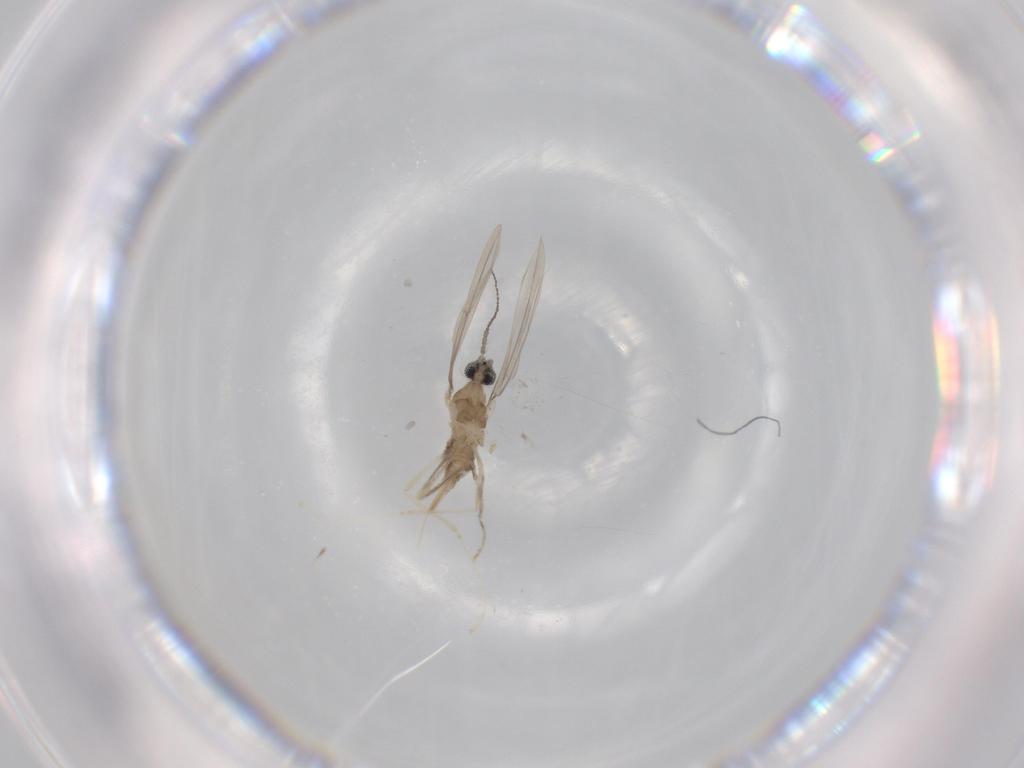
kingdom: Animalia
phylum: Arthropoda
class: Insecta
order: Diptera
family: Cecidomyiidae
